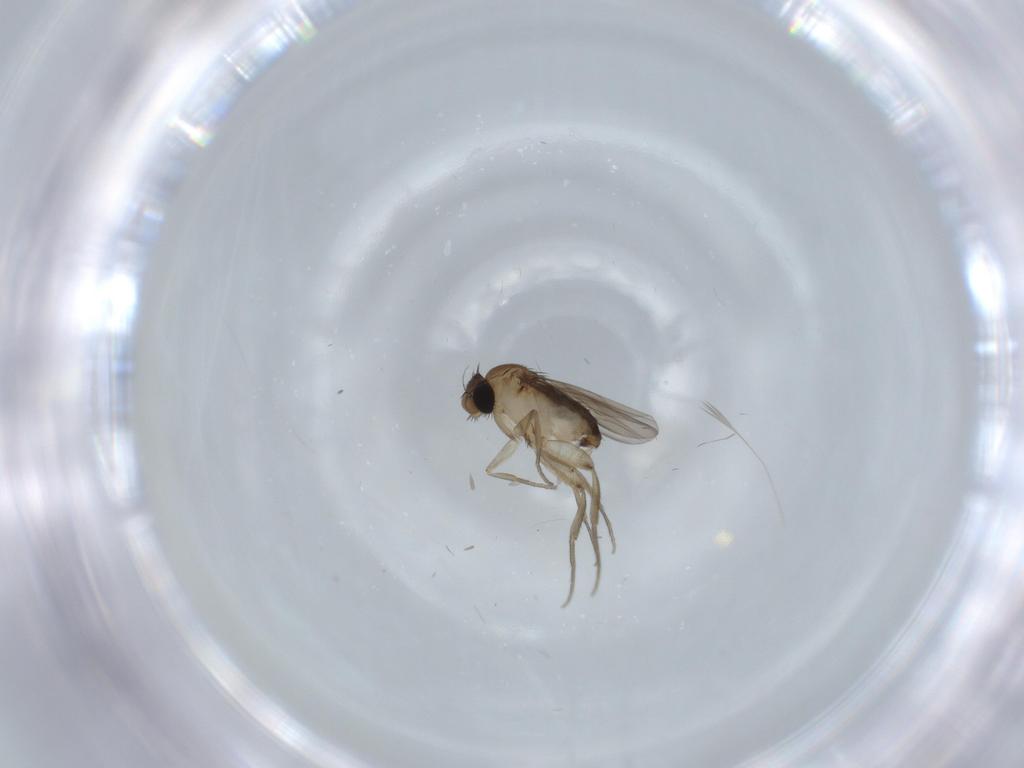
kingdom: Animalia
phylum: Arthropoda
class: Insecta
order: Diptera
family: Phoridae
